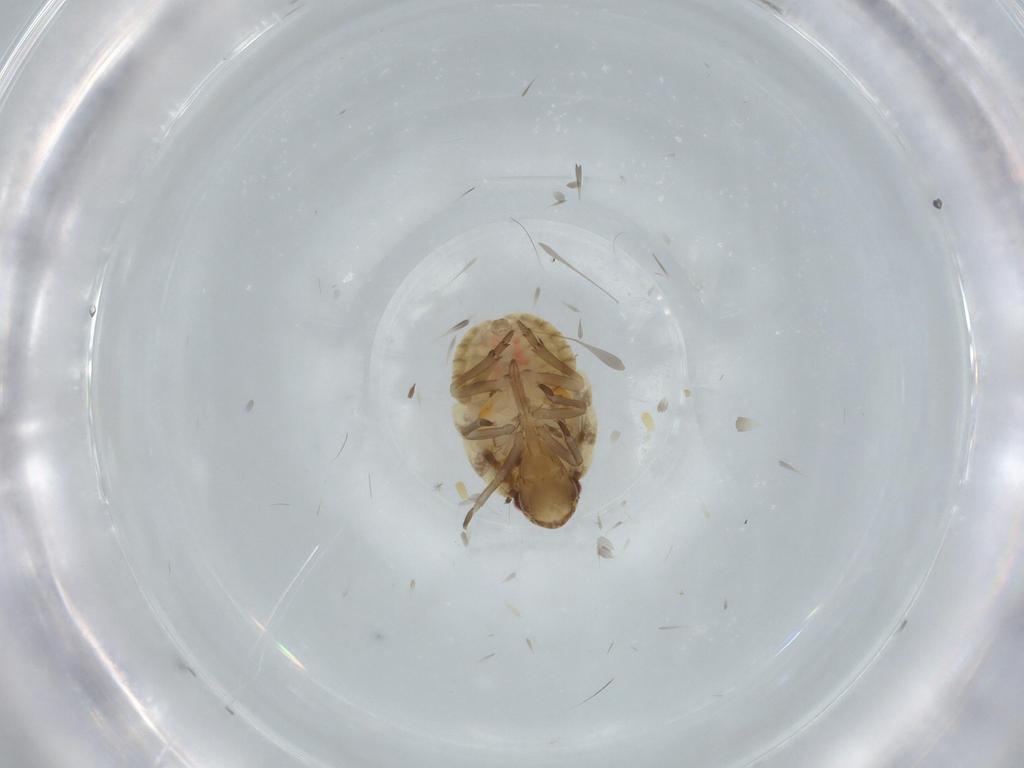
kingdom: Animalia
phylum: Arthropoda
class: Insecta
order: Hemiptera
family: Flatidae
